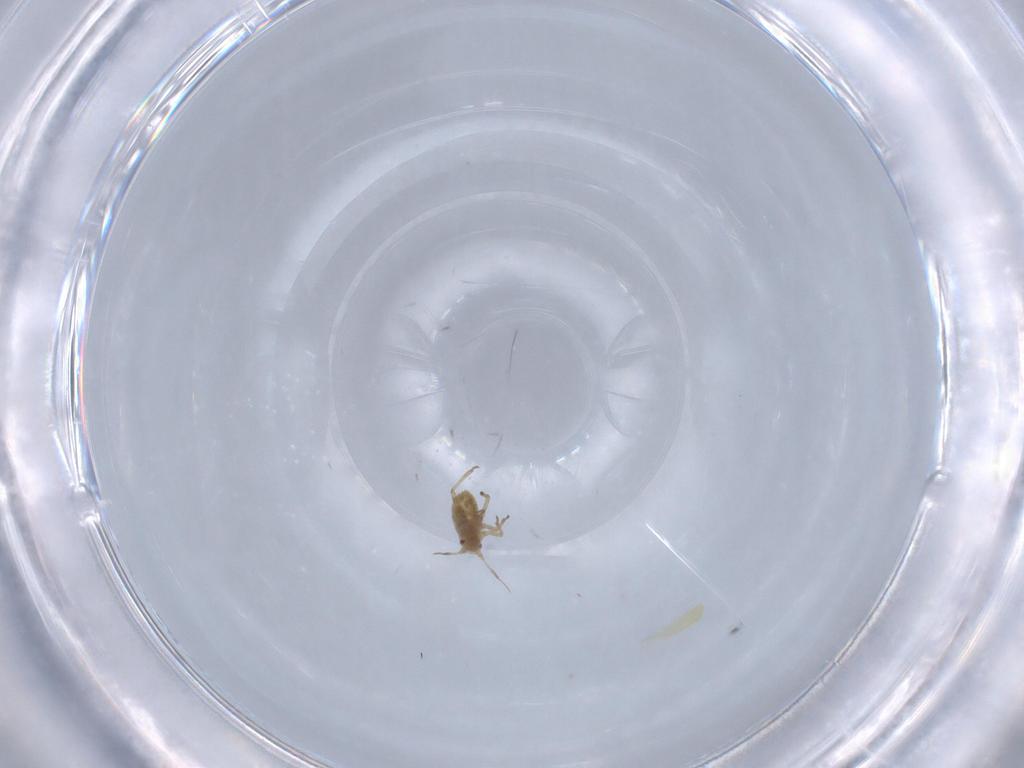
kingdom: Animalia
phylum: Arthropoda
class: Insecta
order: Hemiptera
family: Aphididae
